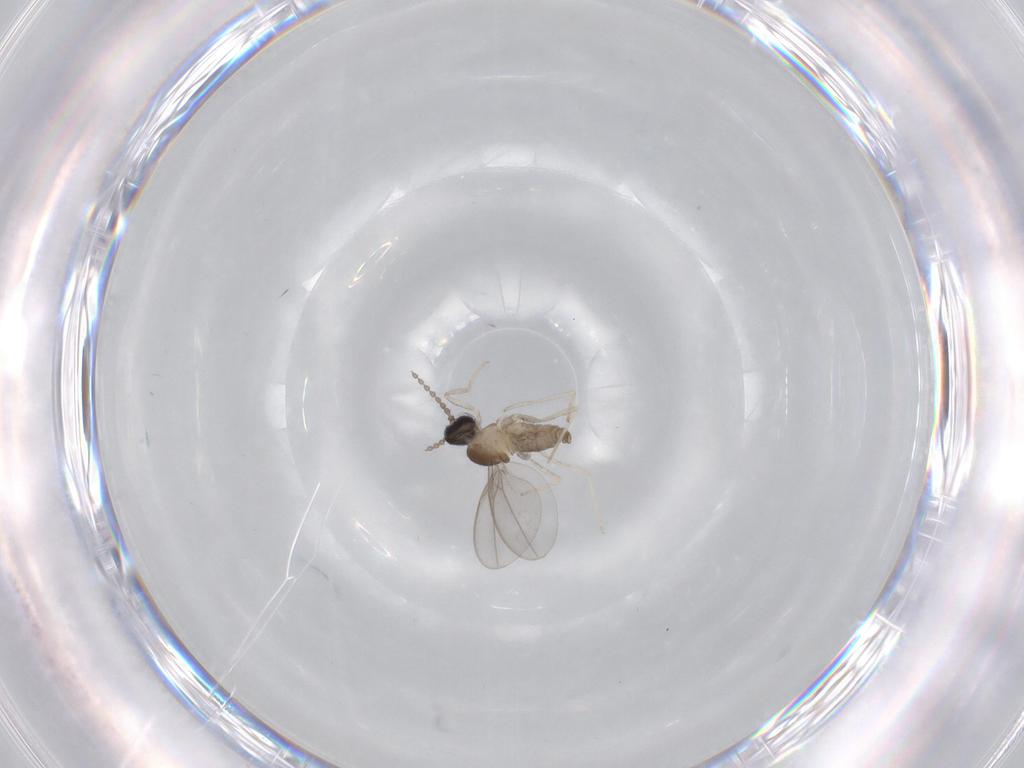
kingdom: Animalia
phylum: Arthropoda
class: Insecta
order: Diptera
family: Cecidomyiidae
